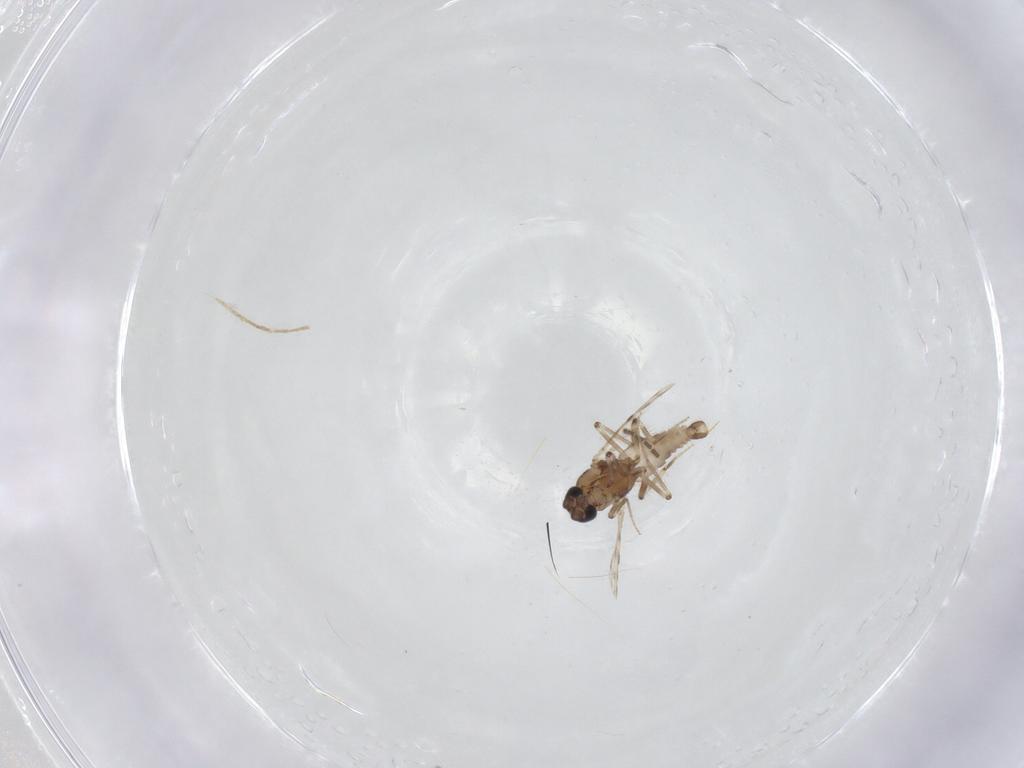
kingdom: Animalia
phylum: Arthropoda
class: Insecta
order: Diptera
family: Cecidomyiidae
